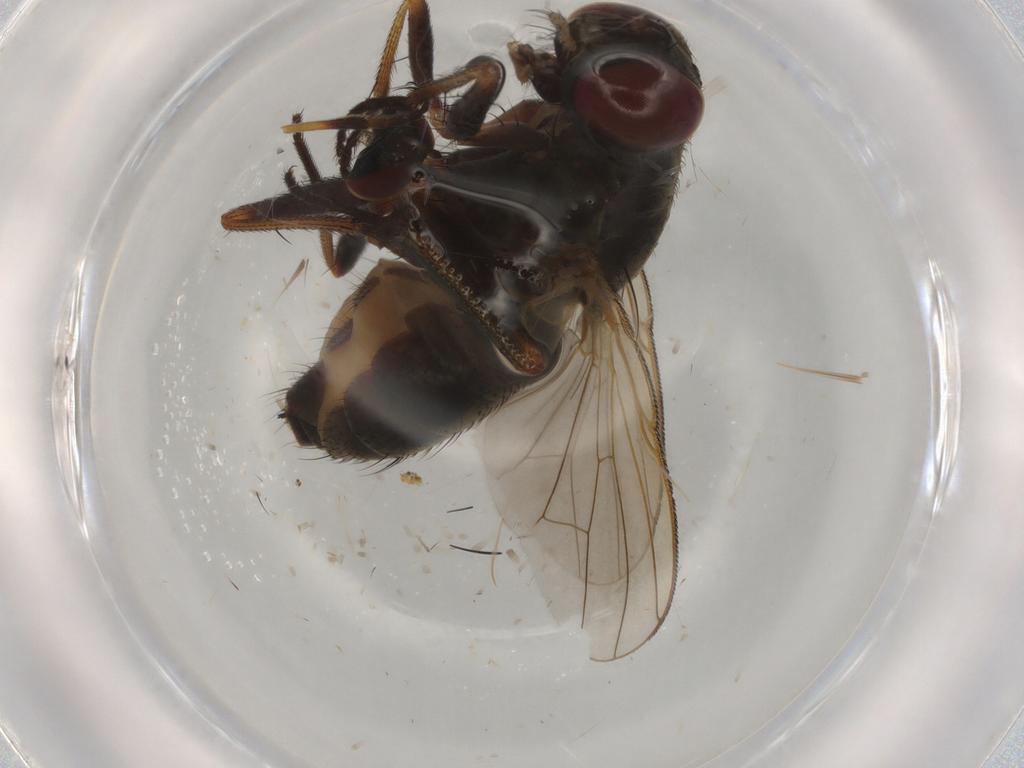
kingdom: Animalia
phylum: Arthropoda
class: Insecta
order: Diptera
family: Dolichopodidae
